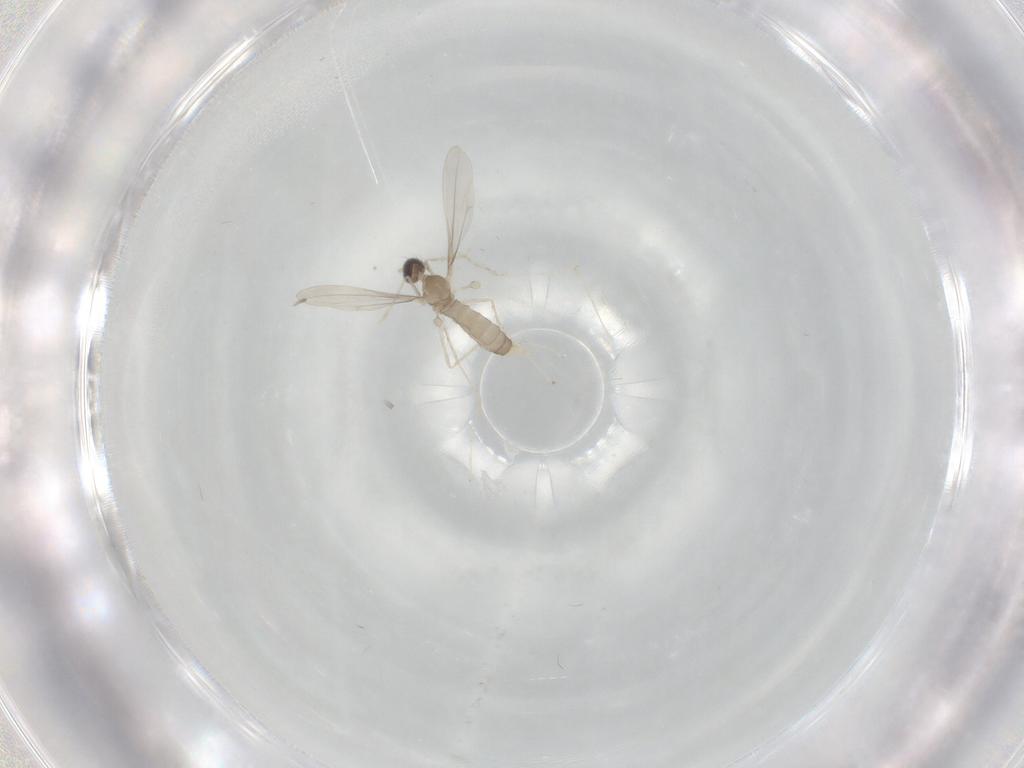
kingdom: Animalia
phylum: Arthropoda
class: Insecta
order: Diptera
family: Cecidomyiidae
